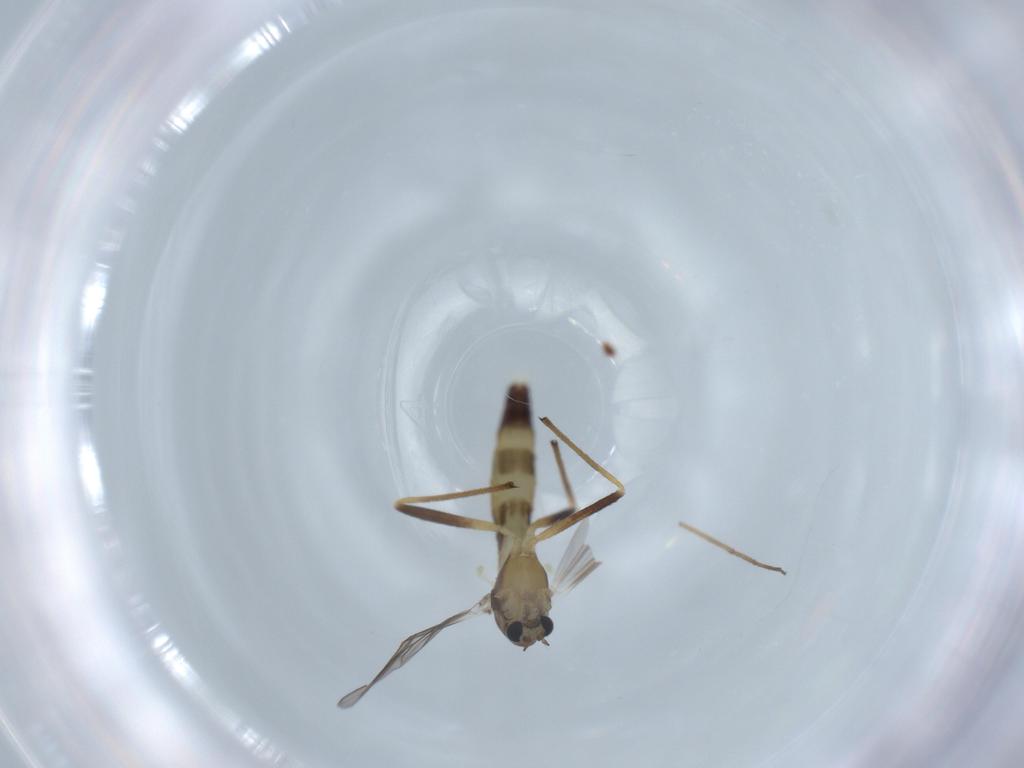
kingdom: Animalia
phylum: Arthropoda
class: Insecta
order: Diptera
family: Chironomidae
